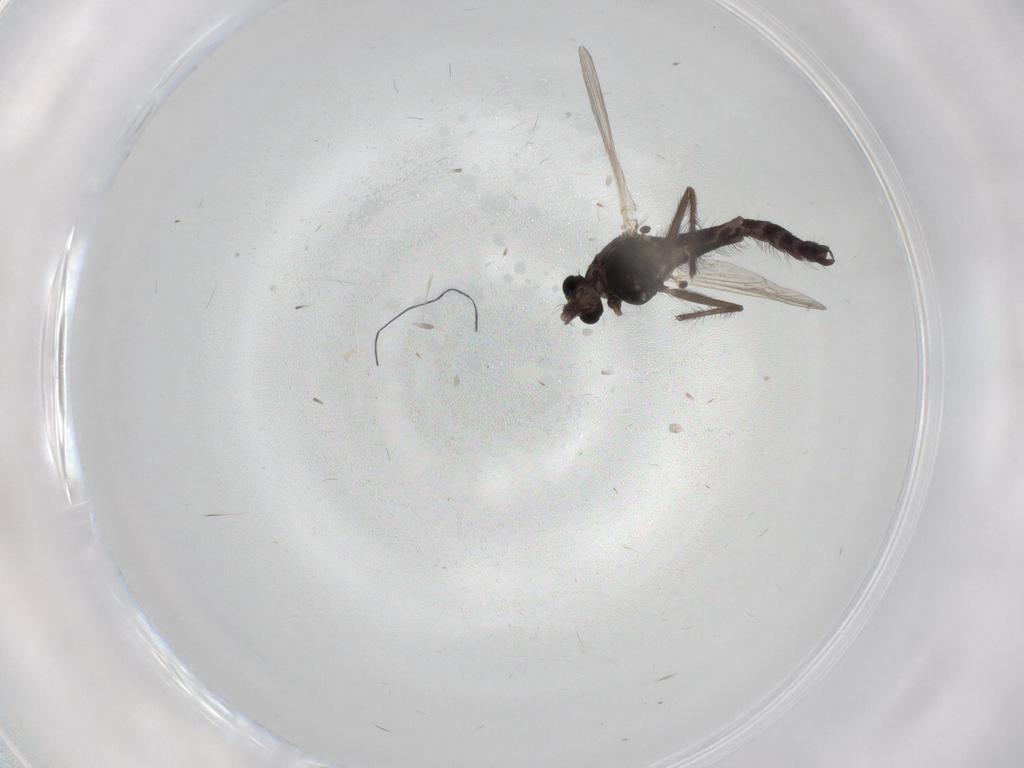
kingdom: Animalia
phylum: Arthropoda
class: Insecta
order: Diptera
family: Chironomidae
